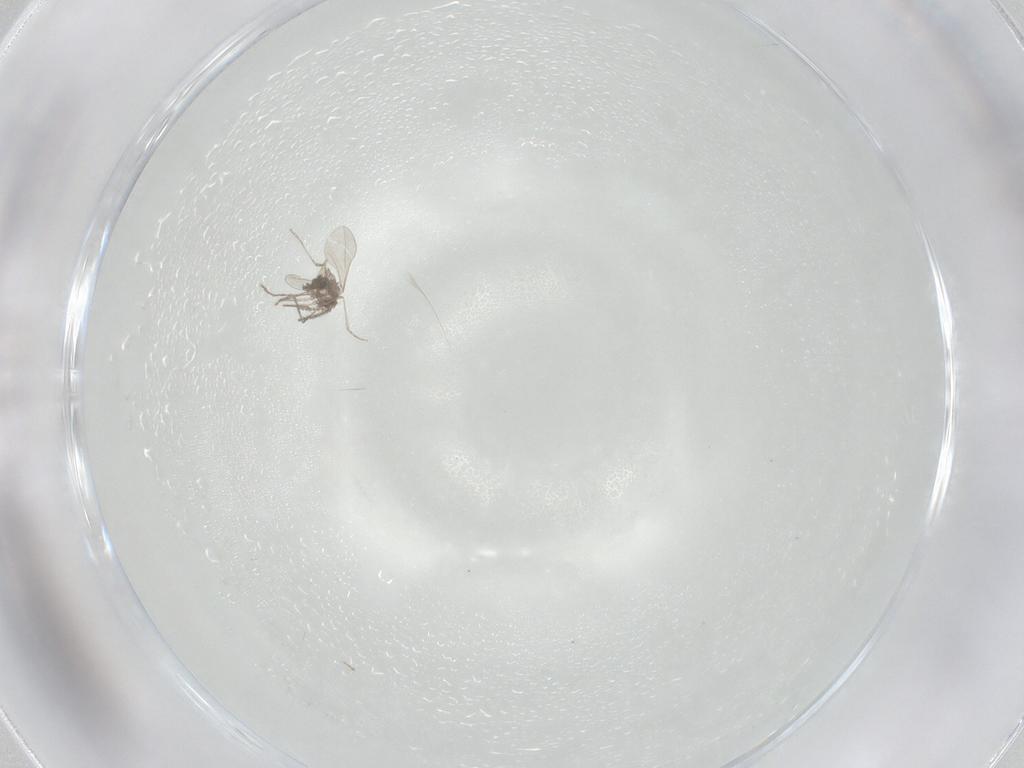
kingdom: Animalia
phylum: Arthropoda
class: Insecta
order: Diptera
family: Cecidomyiidae
